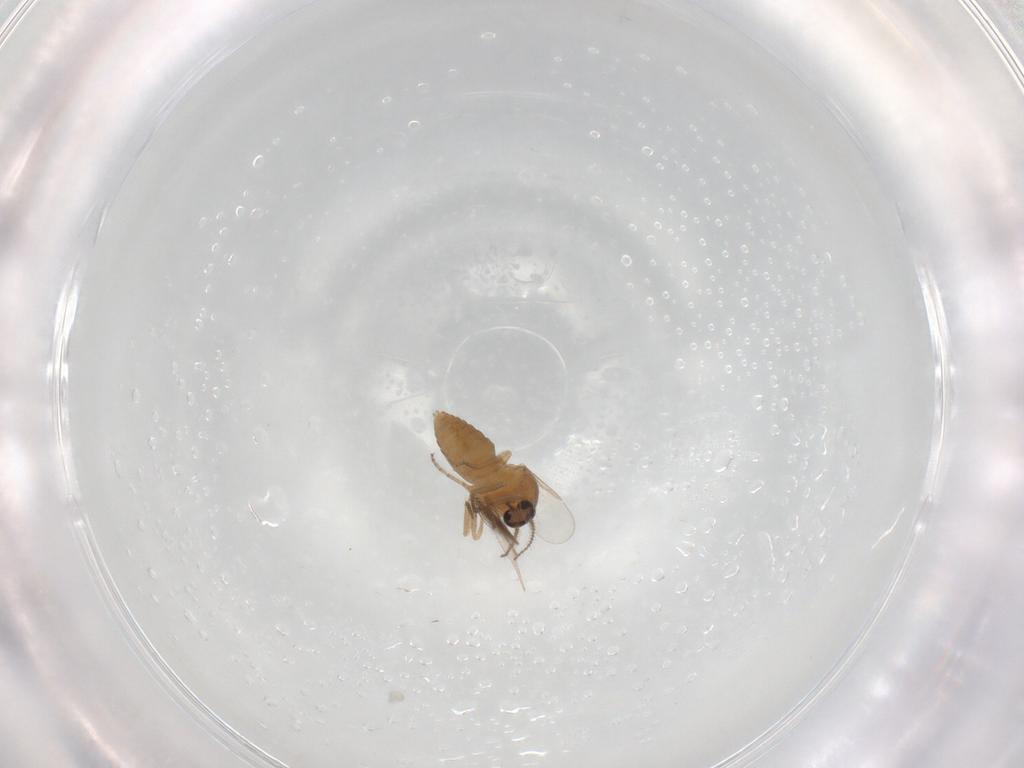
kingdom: Animalia
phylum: Arthropoda
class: Insecta
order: Diptera
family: Ceratopogonidae
